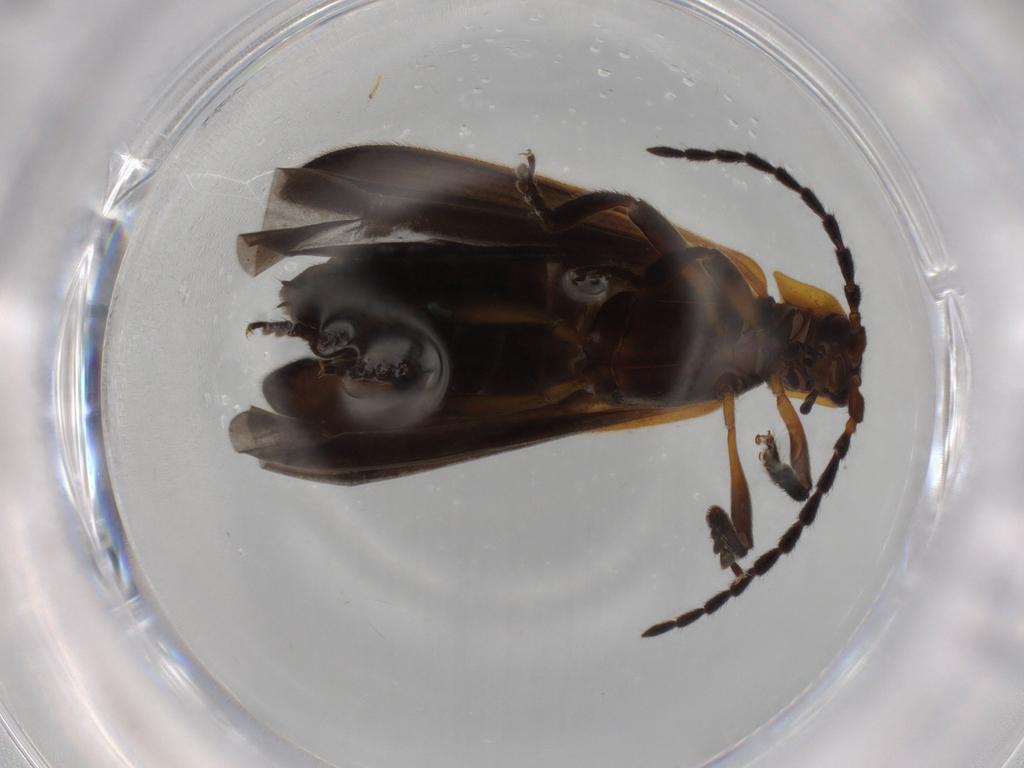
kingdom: Animalia
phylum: Arthropoda
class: Insecta
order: Coleoptera
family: Lycidae
